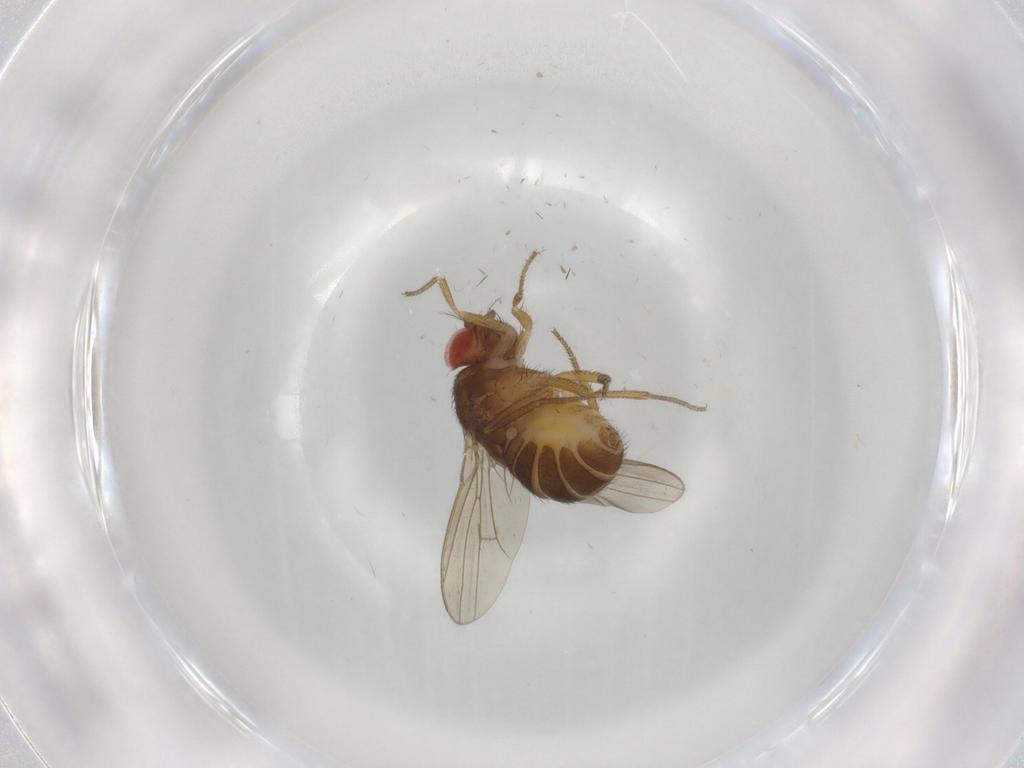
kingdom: Animalia
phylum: Arthropoda
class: Insecta
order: Diptera
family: Drosophilidae
